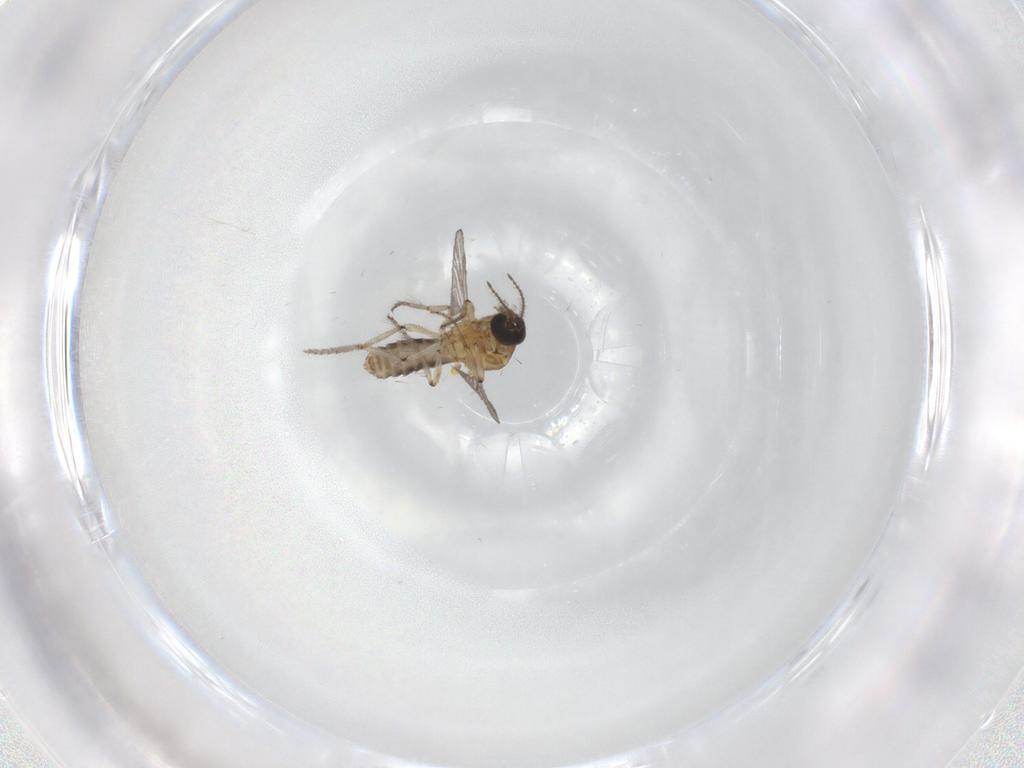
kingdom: Animalia
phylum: Arthropoda
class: Insecta
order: Diptera
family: Ceratopogonidae
